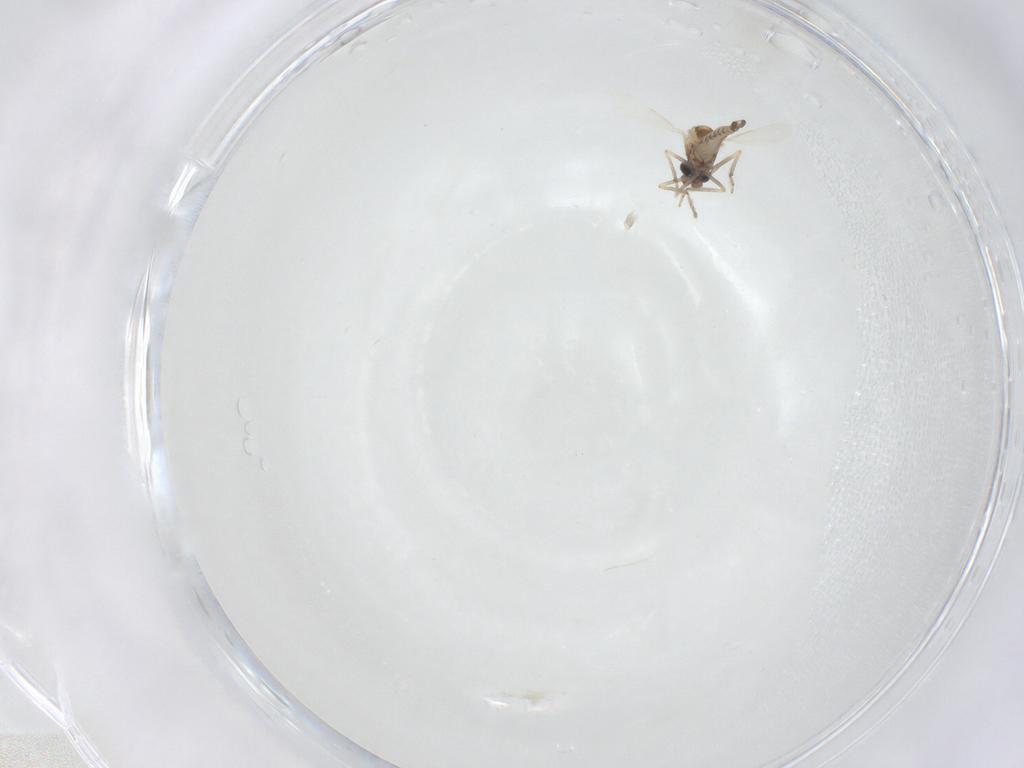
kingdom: Animalia
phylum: Arthropoda
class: Insecta
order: Diptera
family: Ceratopogonidae
